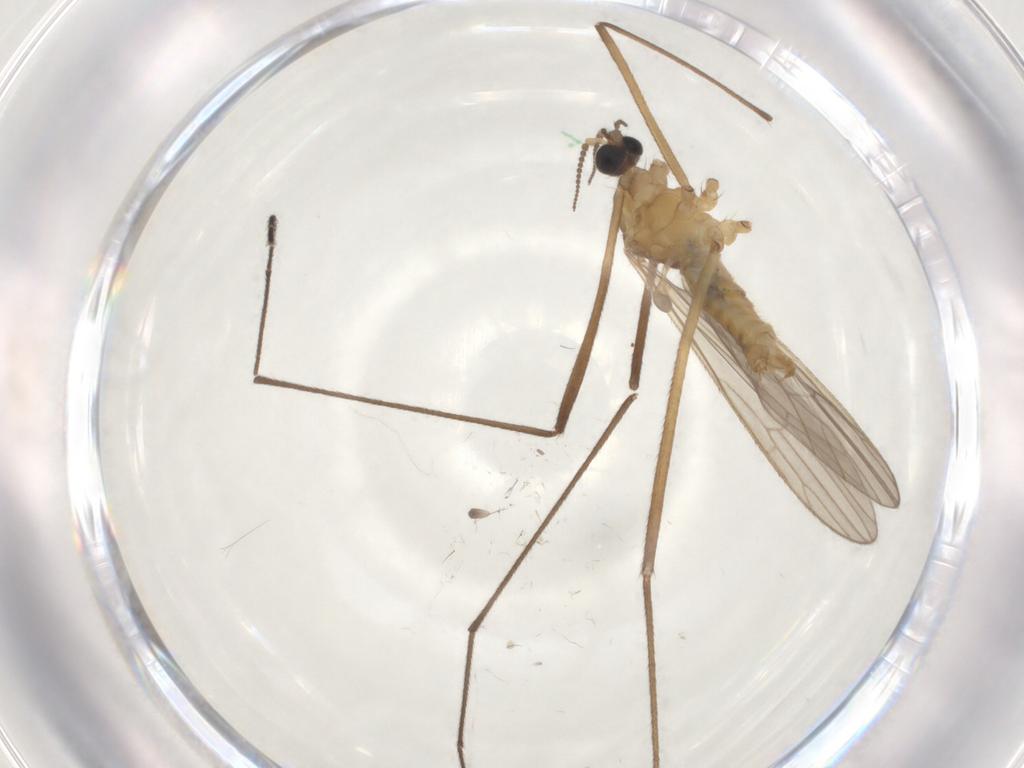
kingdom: Animalia
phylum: Arthropoda
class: Insecta
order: Diptera
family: Limoniidae
